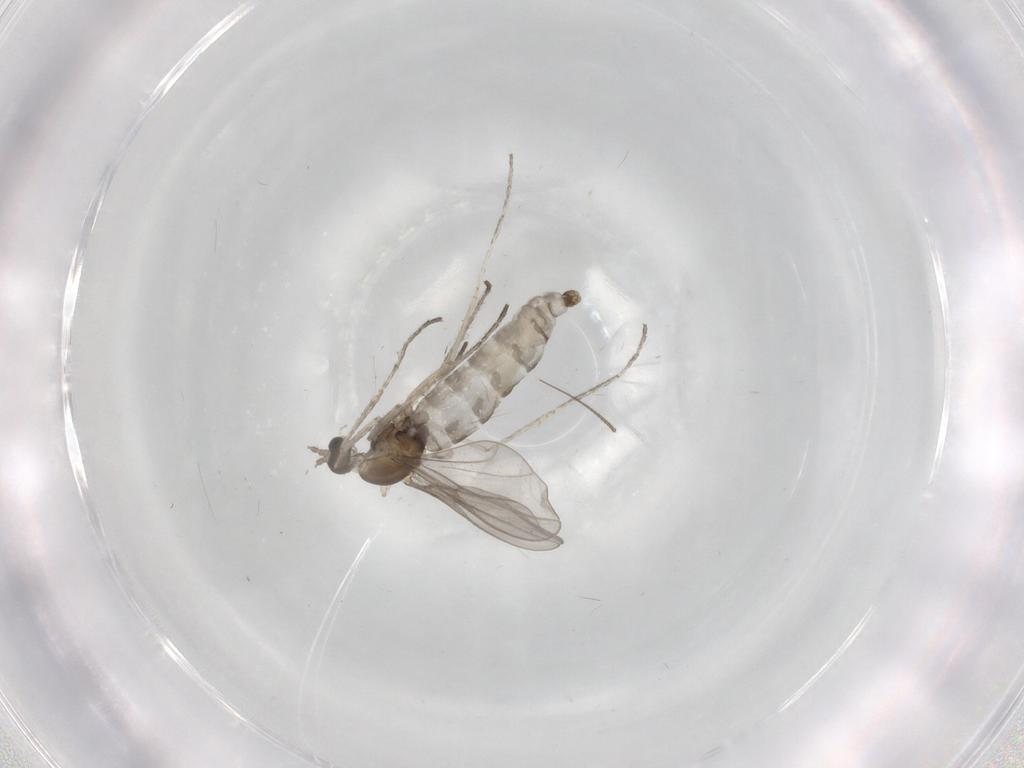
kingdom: Animalia
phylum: Arthropoda
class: Insecta
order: Diptera
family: Chironomidae
